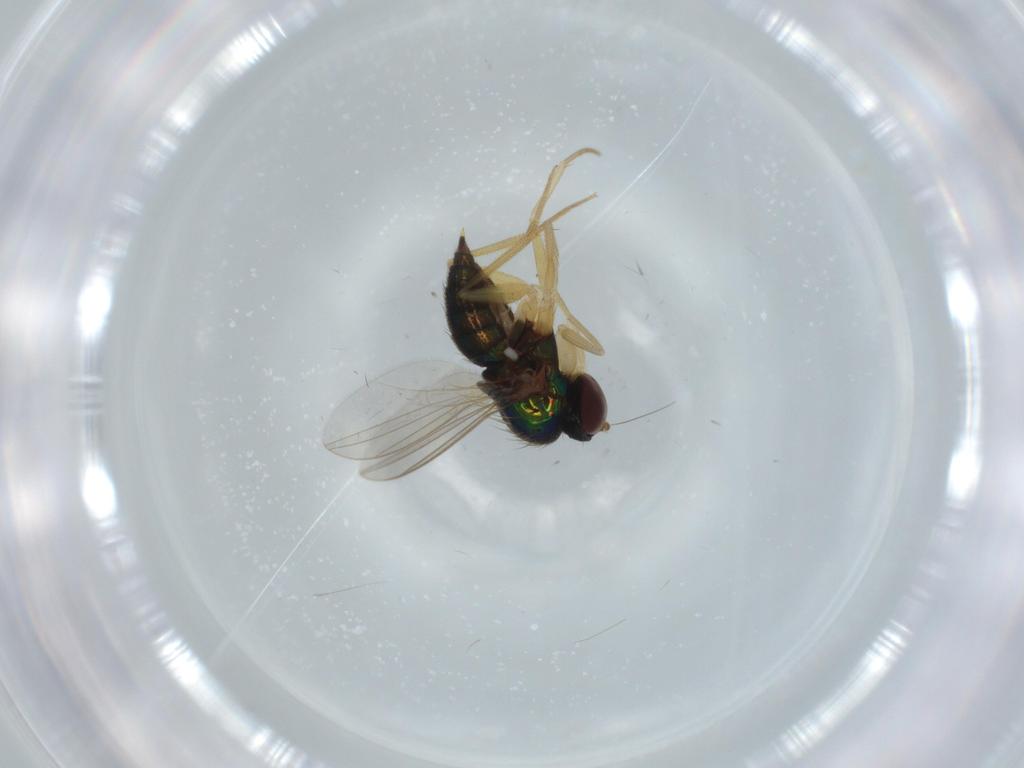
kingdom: Animalia
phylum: Arthropoda
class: Insecta
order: Diptera
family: Dolichopodidae
